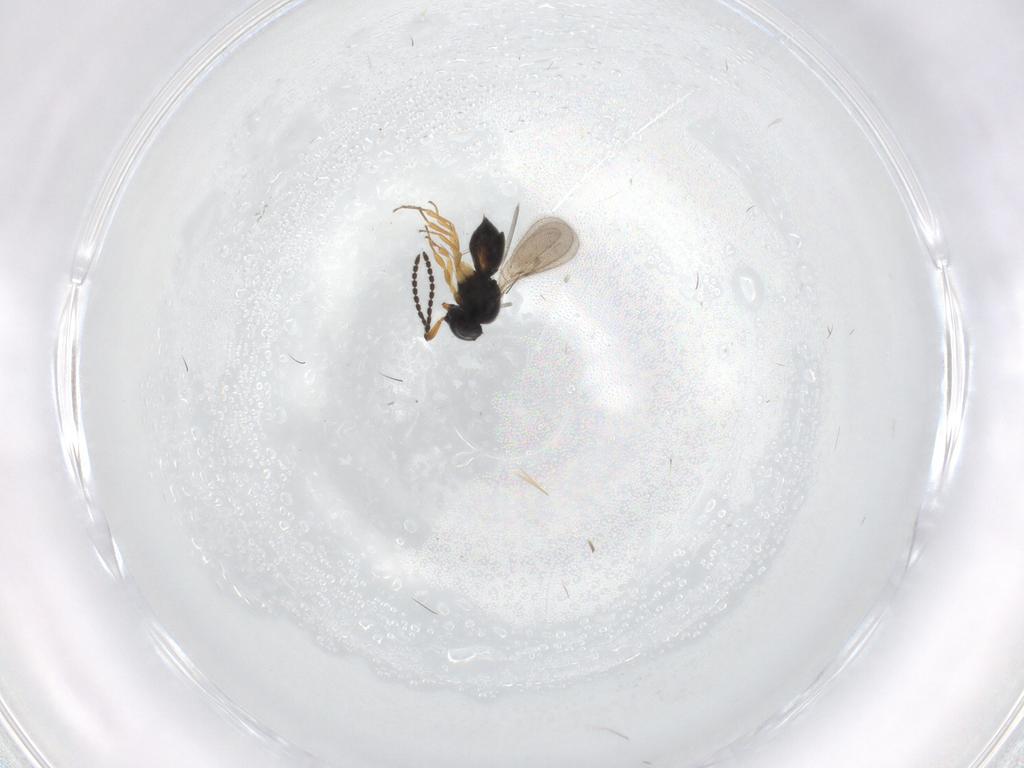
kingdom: Animalia
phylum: Arthropoda
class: Insecta
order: Hymenoptera
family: Scelionidae
